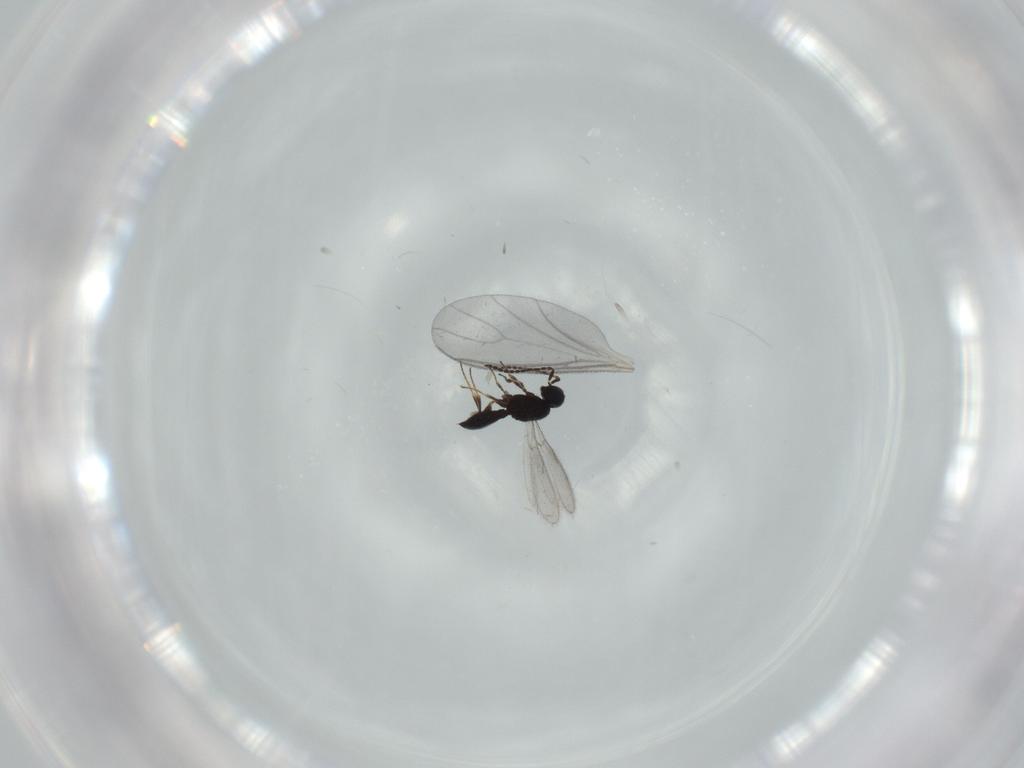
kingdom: Animalia
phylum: Arthropoda
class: Insecta
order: Hymenoptera
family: Scelionidae
